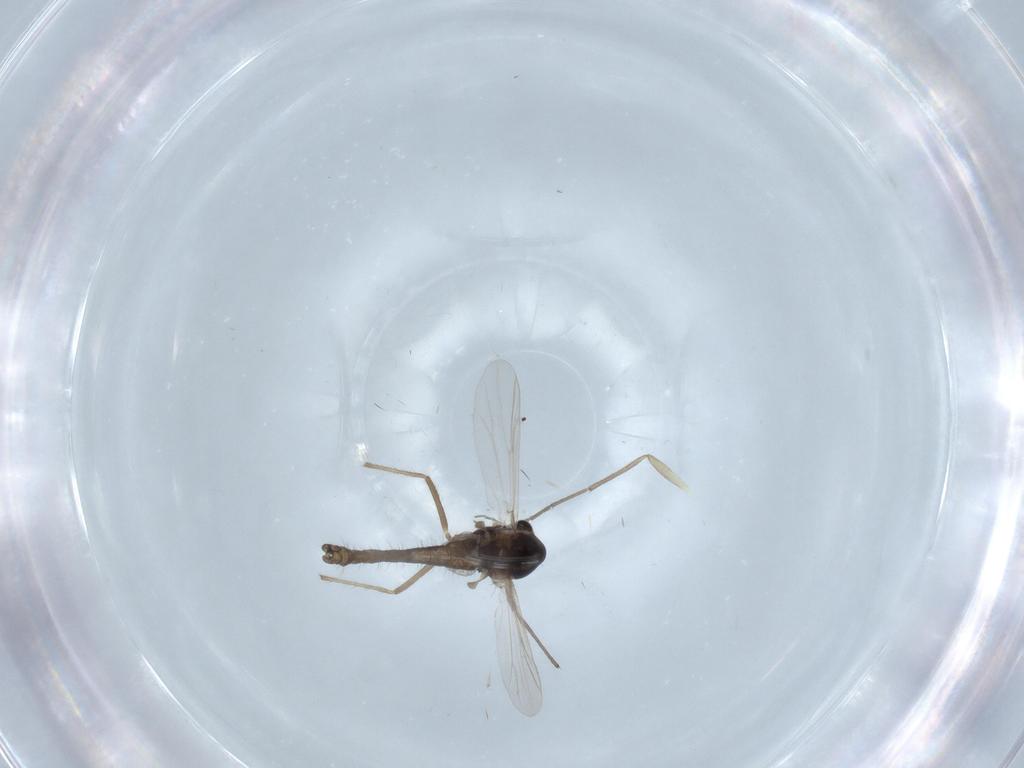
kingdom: Animalia
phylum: Arthropoda
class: Insecta
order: Diptera
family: Chironomidae
